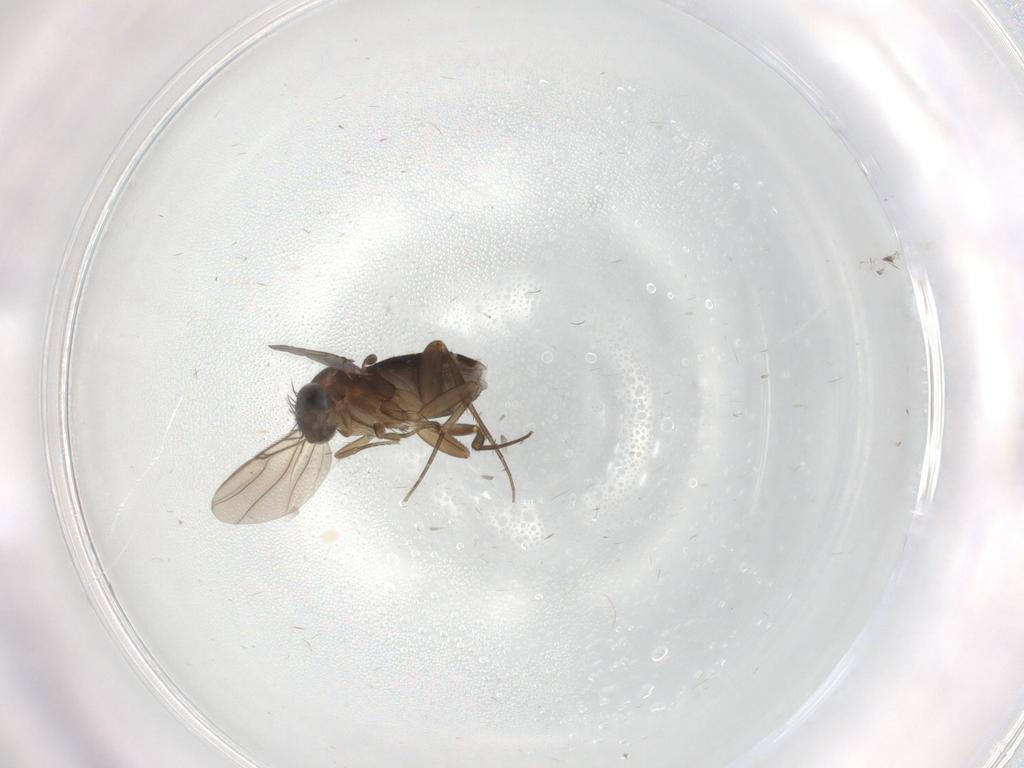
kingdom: Animalia
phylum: Arthropoda
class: Insecta
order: Diptera
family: Phoridae
